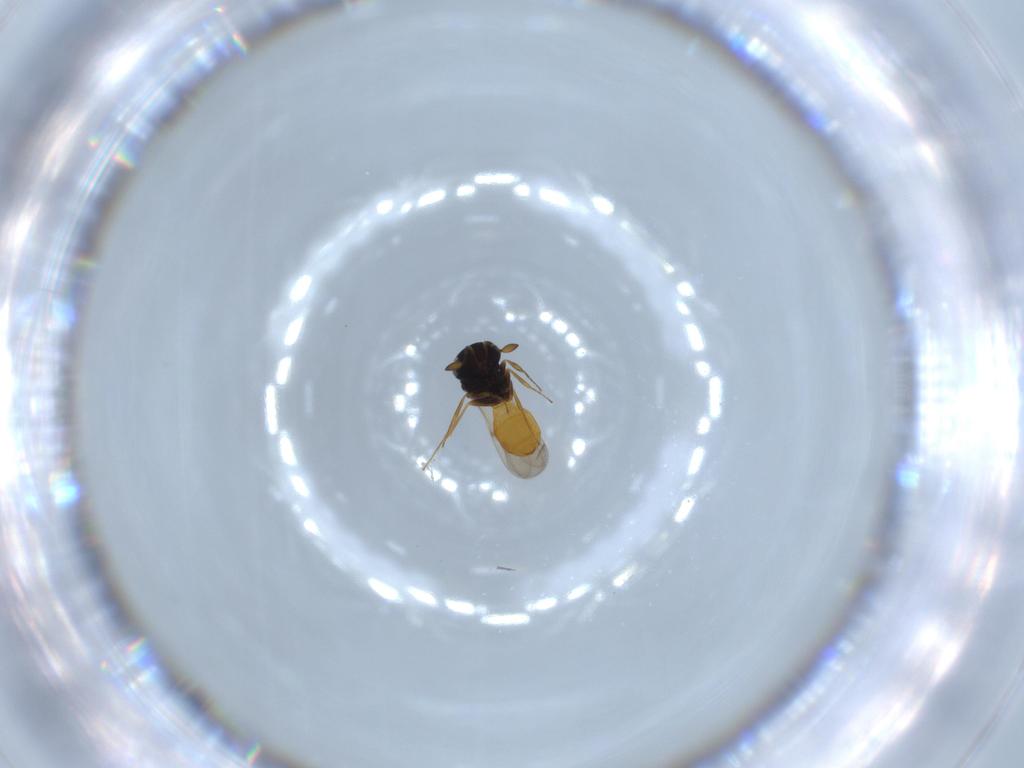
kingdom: Animalia
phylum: Arthropoda
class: Insecta
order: Hymenoptera
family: Scelionidae
